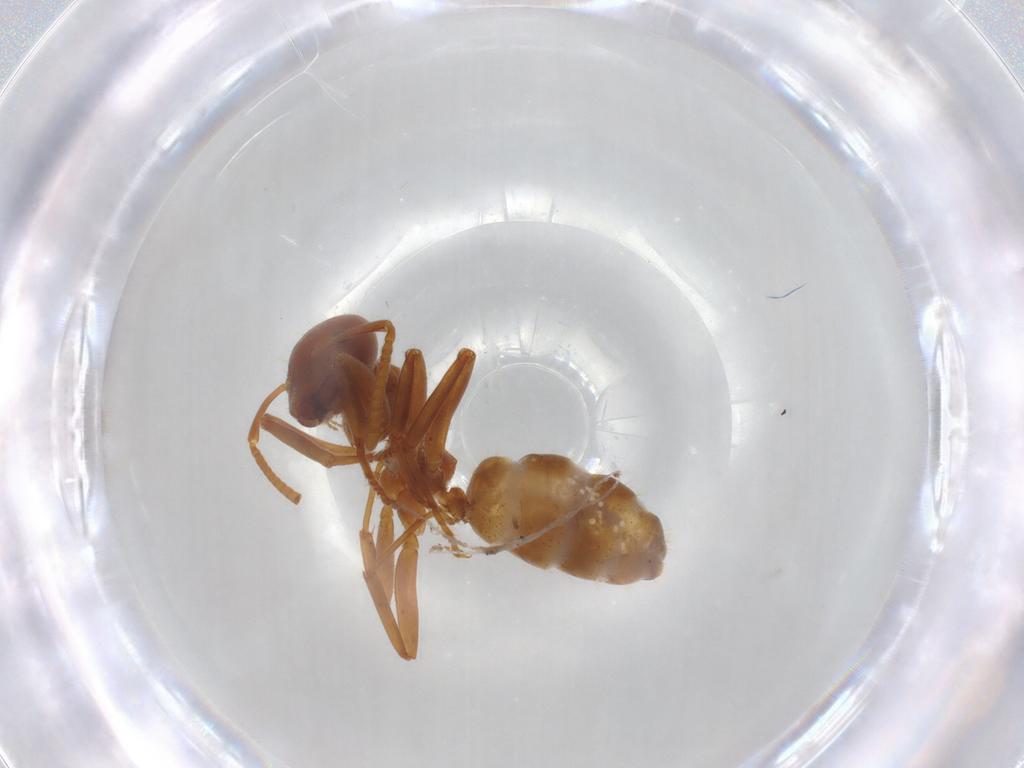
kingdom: Animalia
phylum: Arthropoda
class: Insecta
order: Hymenoptera
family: Formicidae
